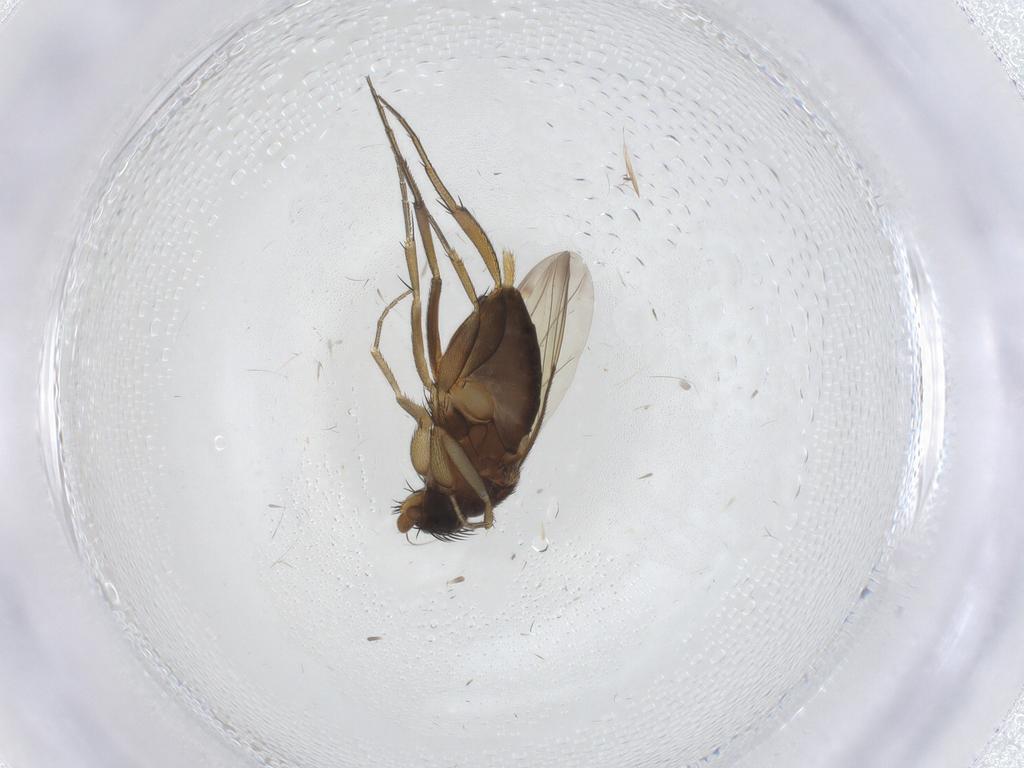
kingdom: Animalia
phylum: Arthropoda
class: Insecta
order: Diptera
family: Phoridae
